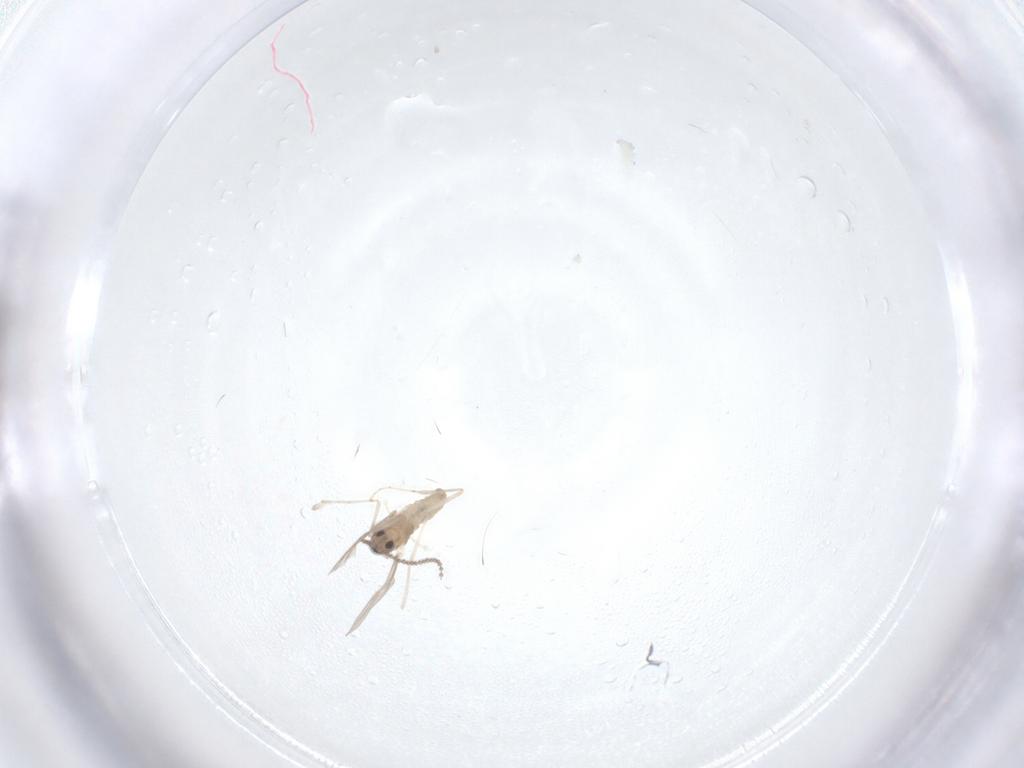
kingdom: Animalia
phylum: Arthropoda
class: Insecta
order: Diptera
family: Cecidomyiidae
